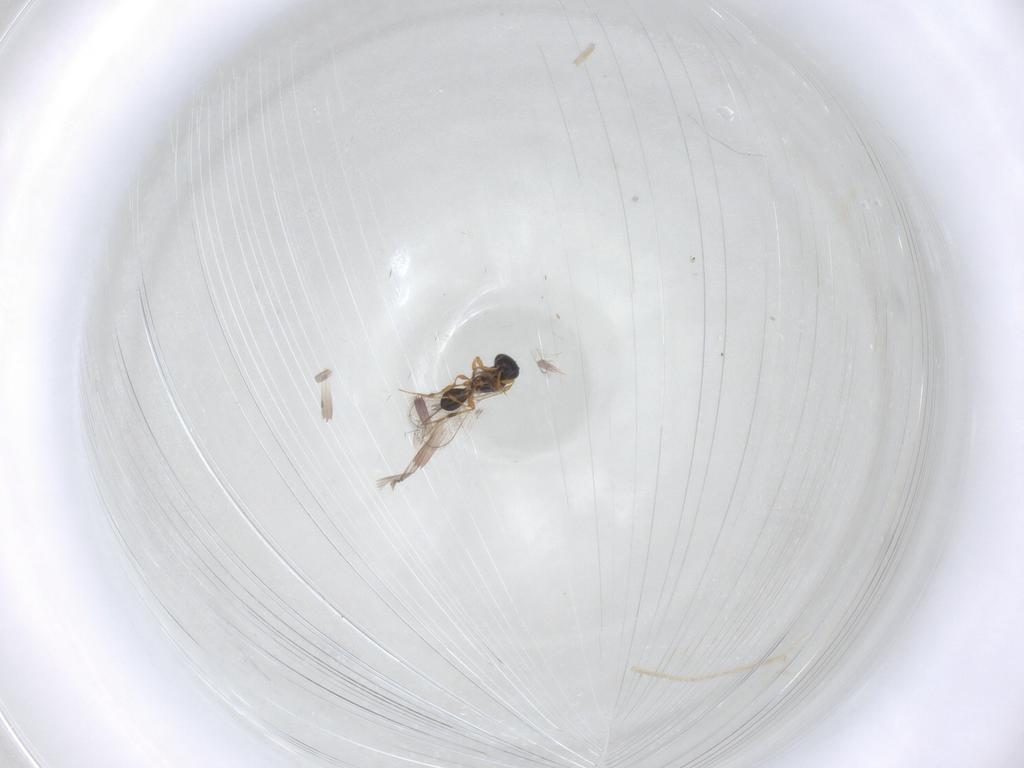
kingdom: Animalia
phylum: Arthropoda
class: Insecta
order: Hymenoptera
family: Platygastridae
